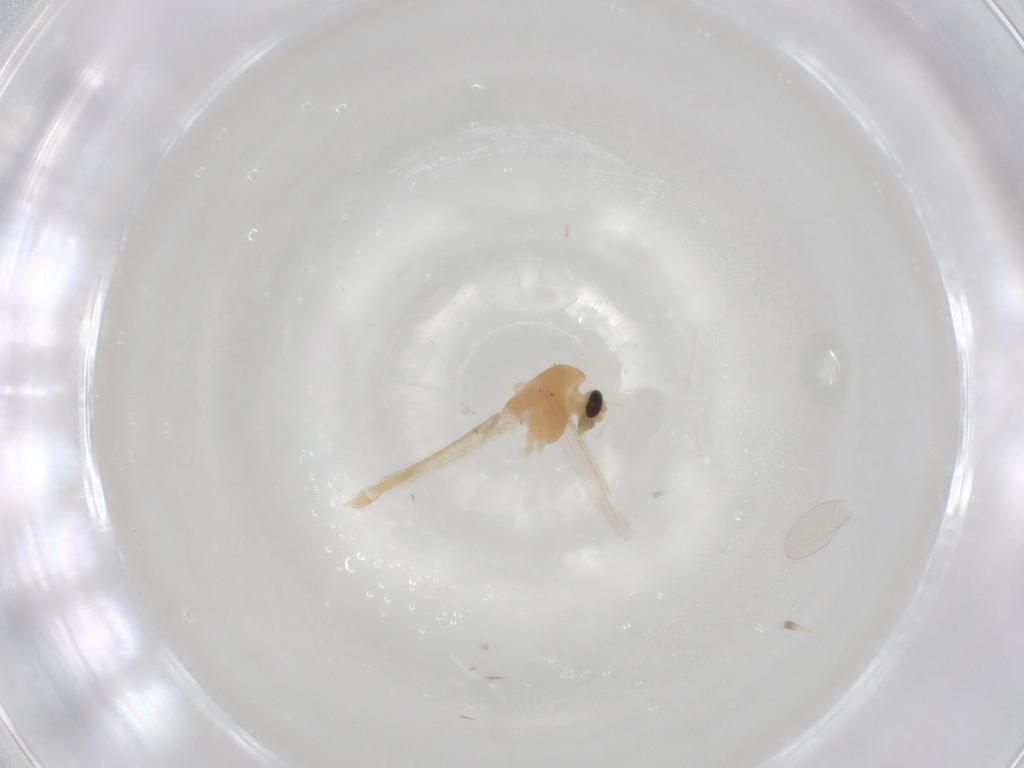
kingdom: Animalia
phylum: Arthropoda
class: Insecta
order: Diptera
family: Chironomidae
